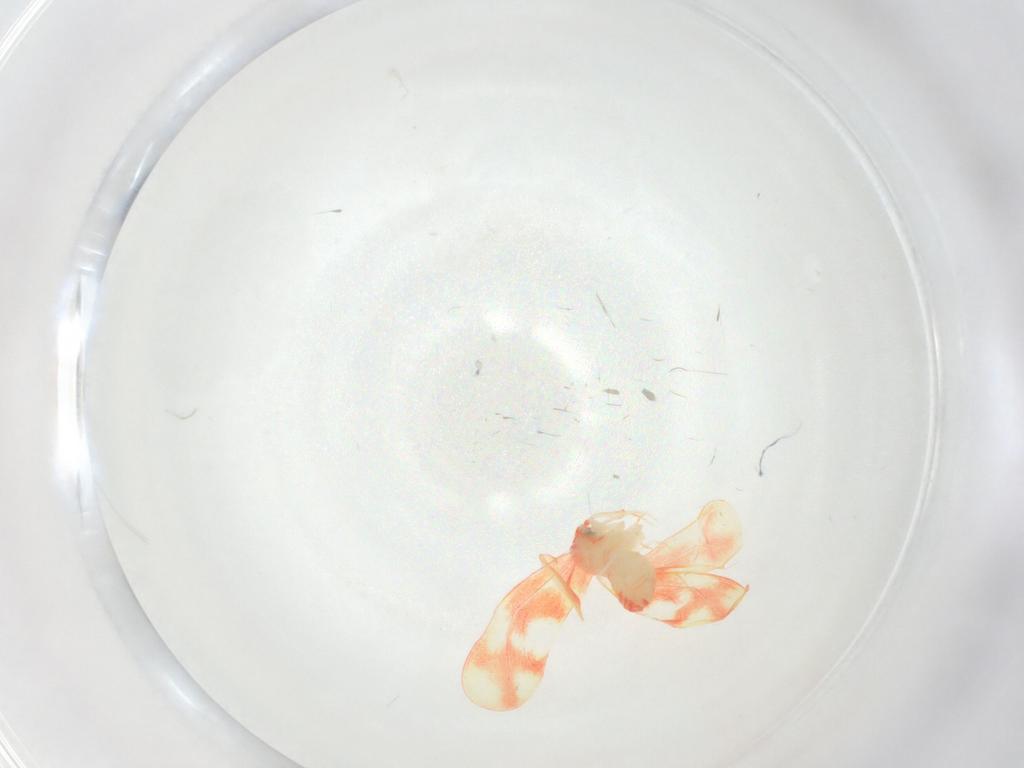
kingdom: Animalia
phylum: Arthropoda
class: Insecta
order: Hemiptera
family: Aleyrodidae
